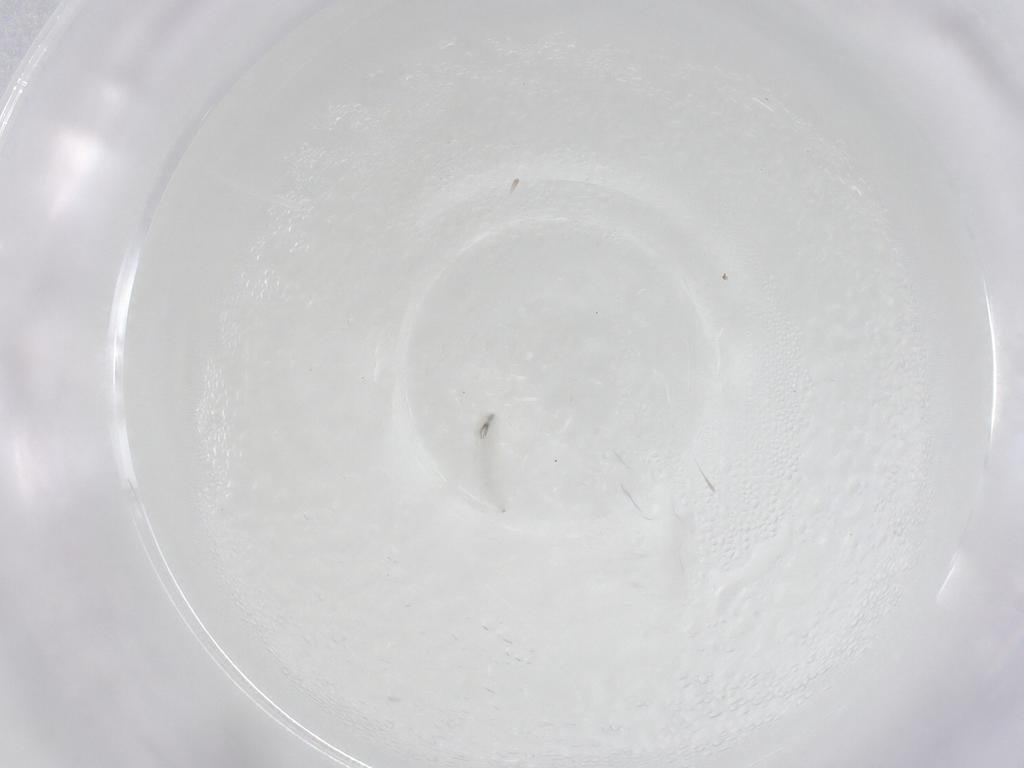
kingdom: Animalia
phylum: Arthropoda
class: Insecta
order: Diptera
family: Oestridae
